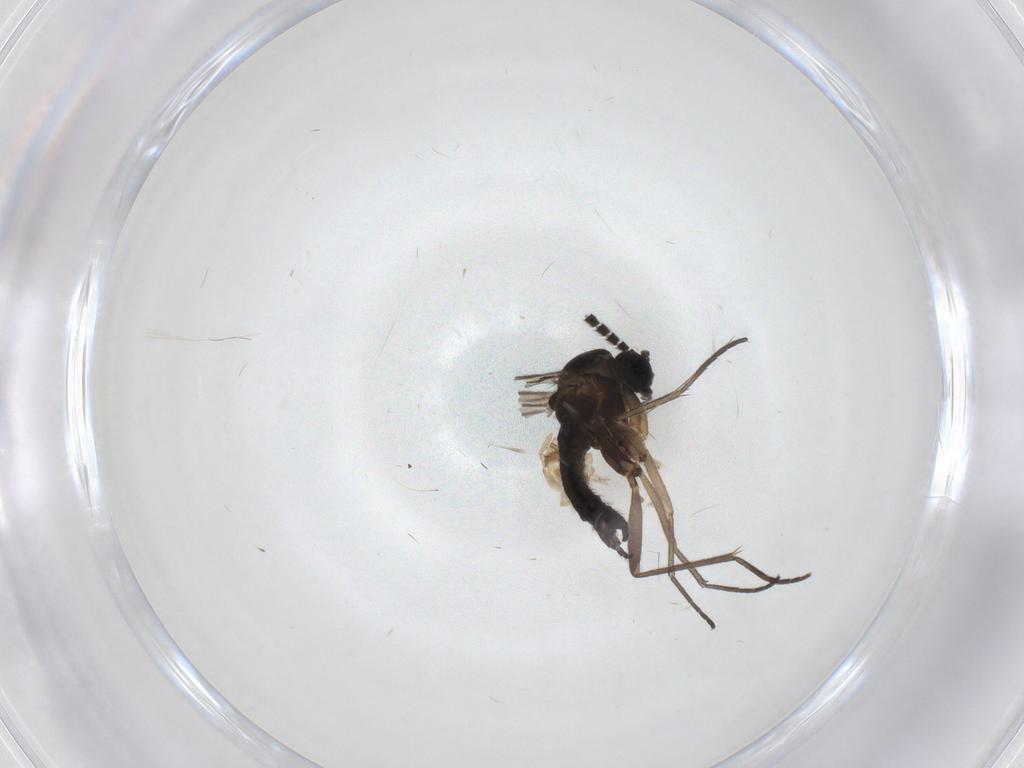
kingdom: Animalia
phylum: Arthropoda
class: Insecta
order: Diptera
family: Sciaridae
